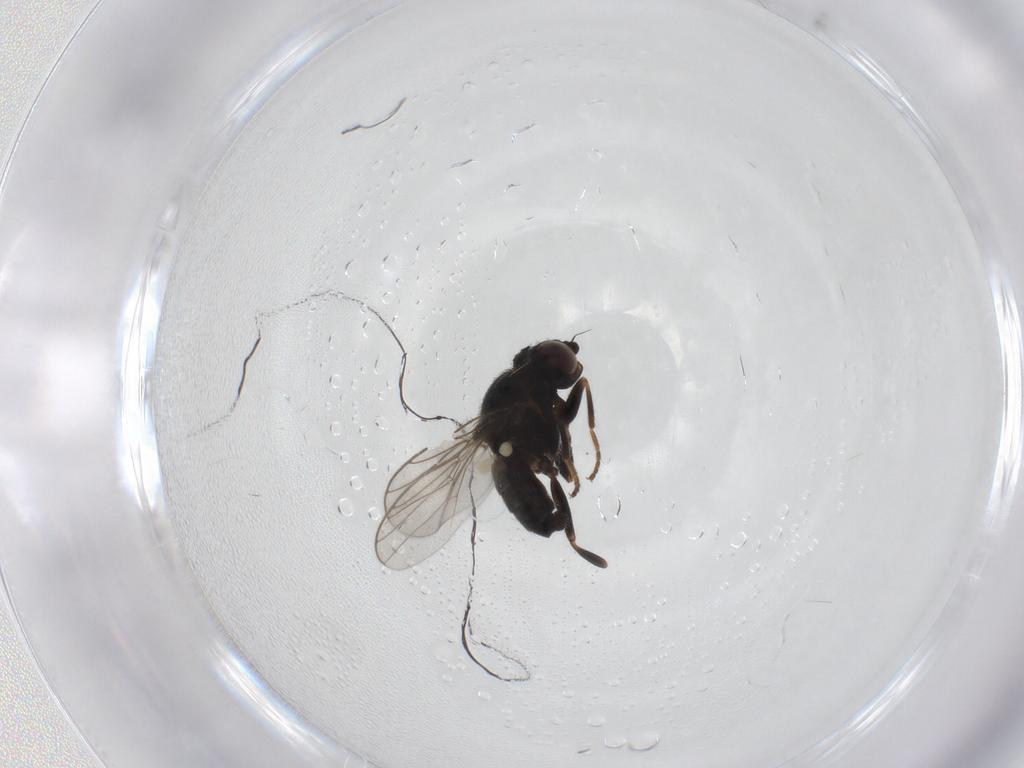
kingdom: Animalia
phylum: Arthropoda
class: Insecta
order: Diptera
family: Chloropidae
